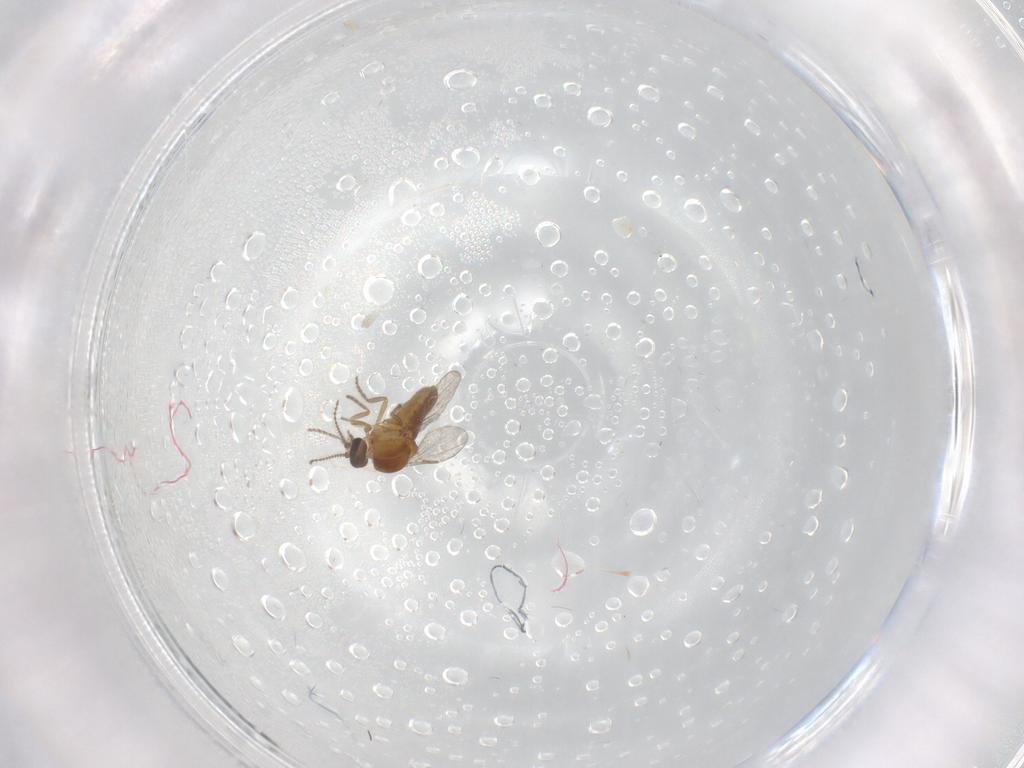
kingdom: Animalia
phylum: Arthropoda
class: Insecta
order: Diptera
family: Ceratopogonidae
